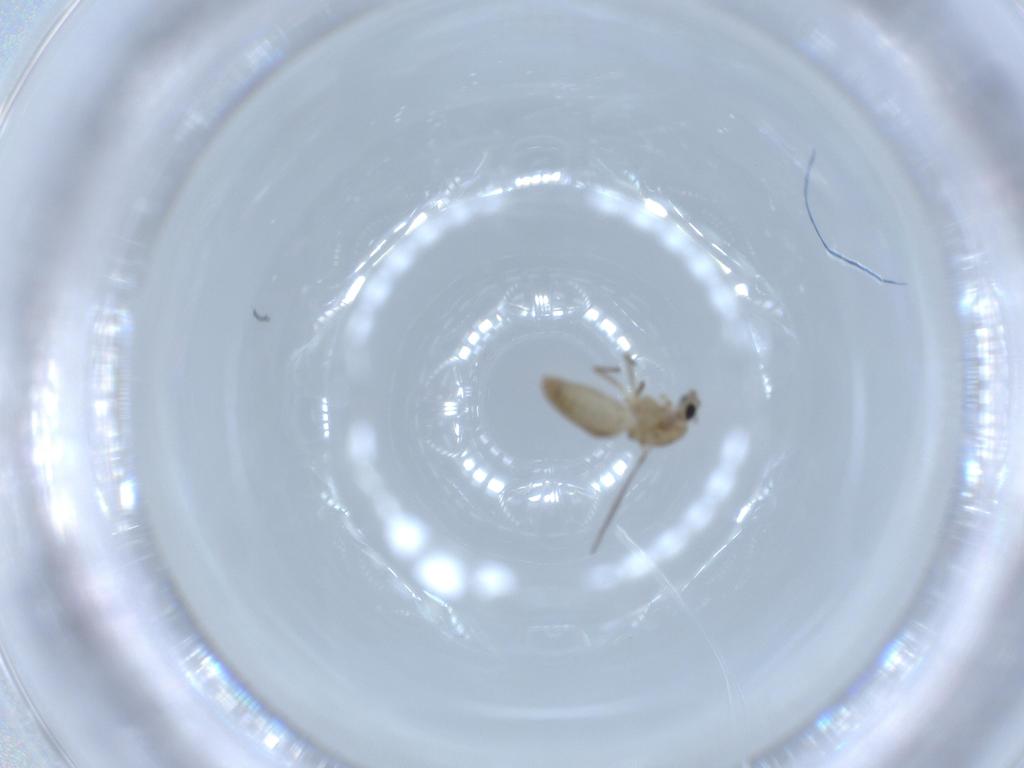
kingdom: Animalia
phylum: Arthropoda
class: Insecta
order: Diptera
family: Chironomidae
